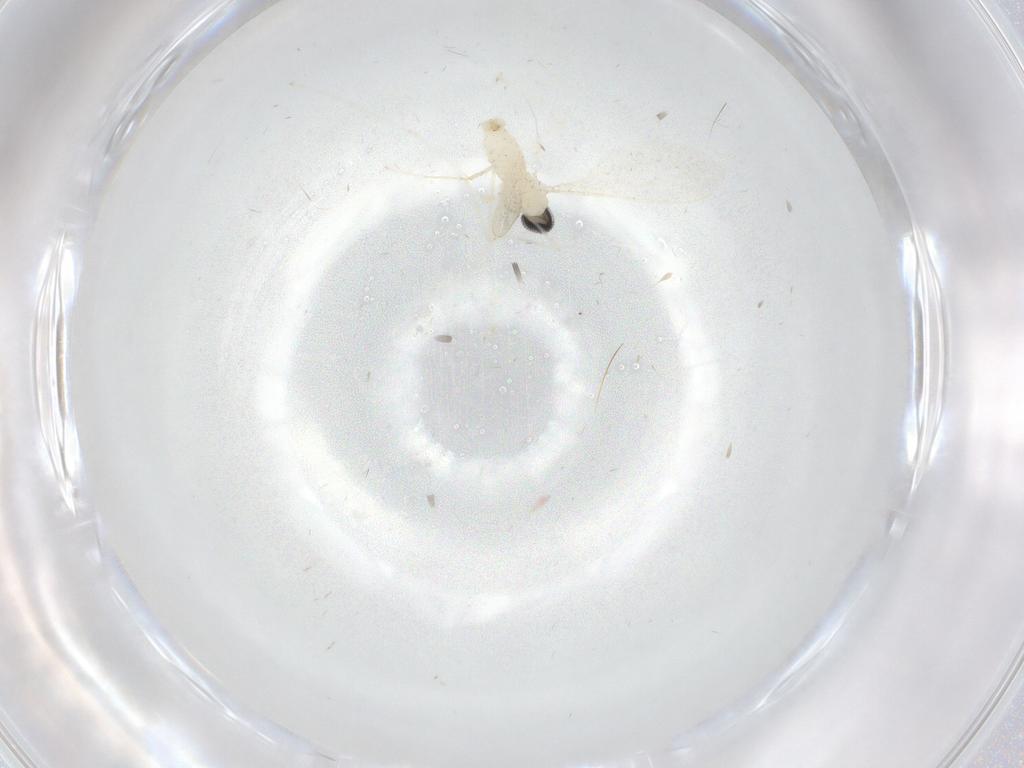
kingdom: Animalia
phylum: Arthropoda
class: Insecta
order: Diptera
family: Cecidomyiidae
